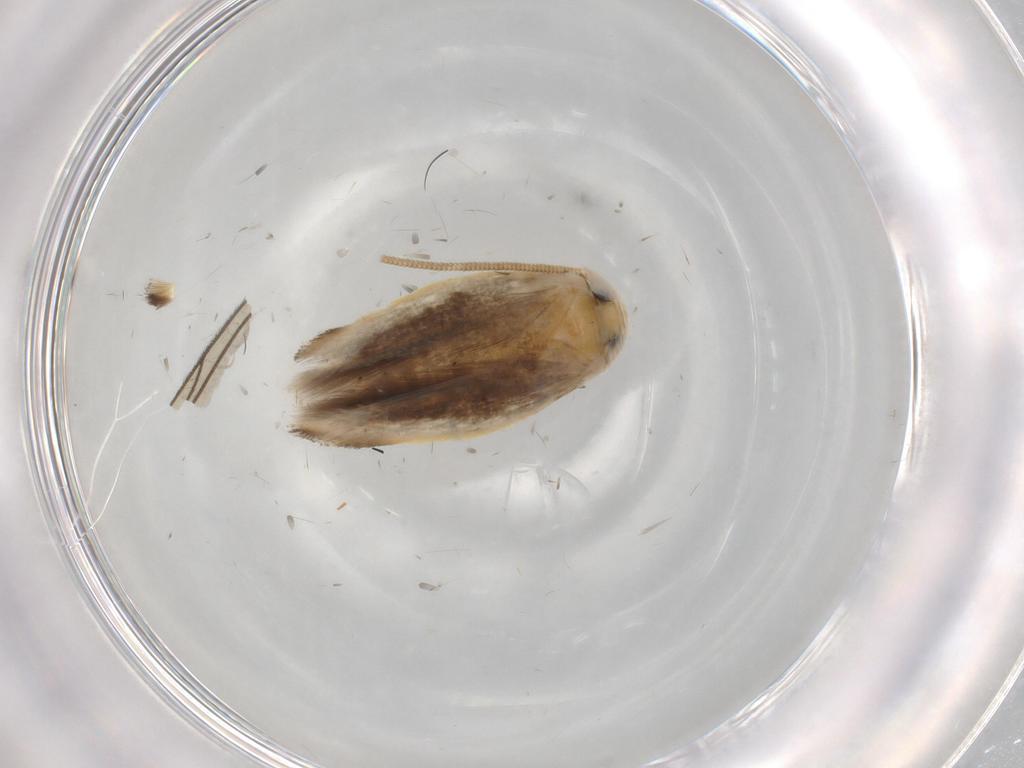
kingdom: Animalia
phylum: Arthropoda
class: Insecta
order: Lepidoptera
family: Opostegidae
